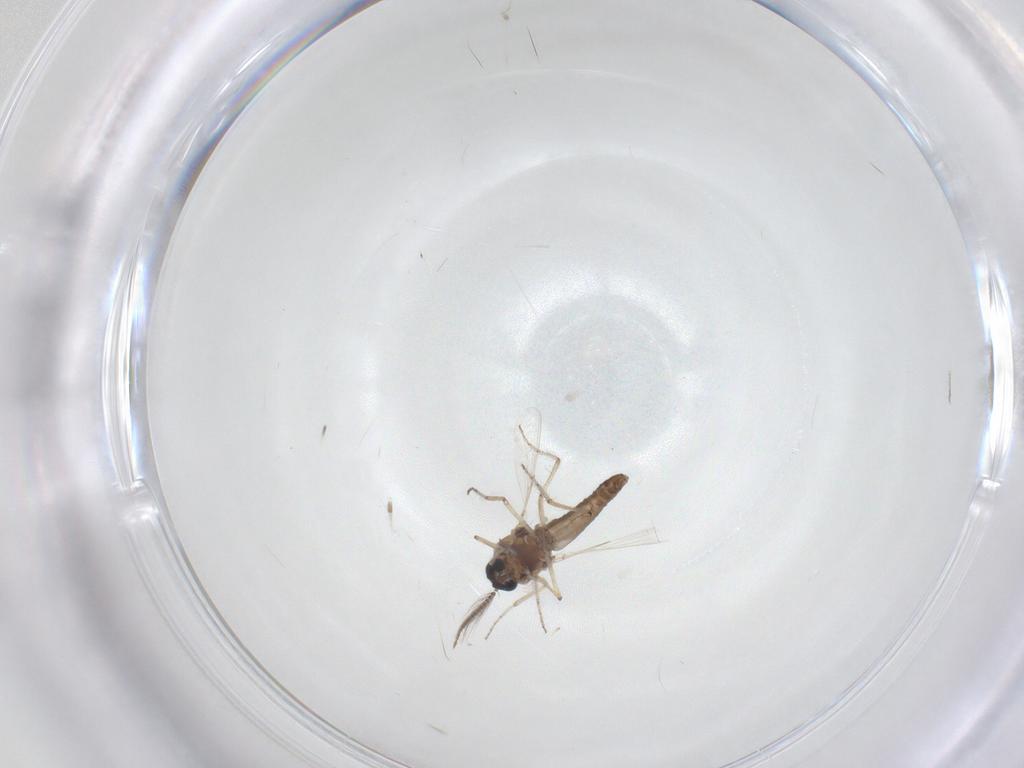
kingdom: Animalia
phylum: Arthropoda
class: Insecta
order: Diptera
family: Ceratopogonidae
